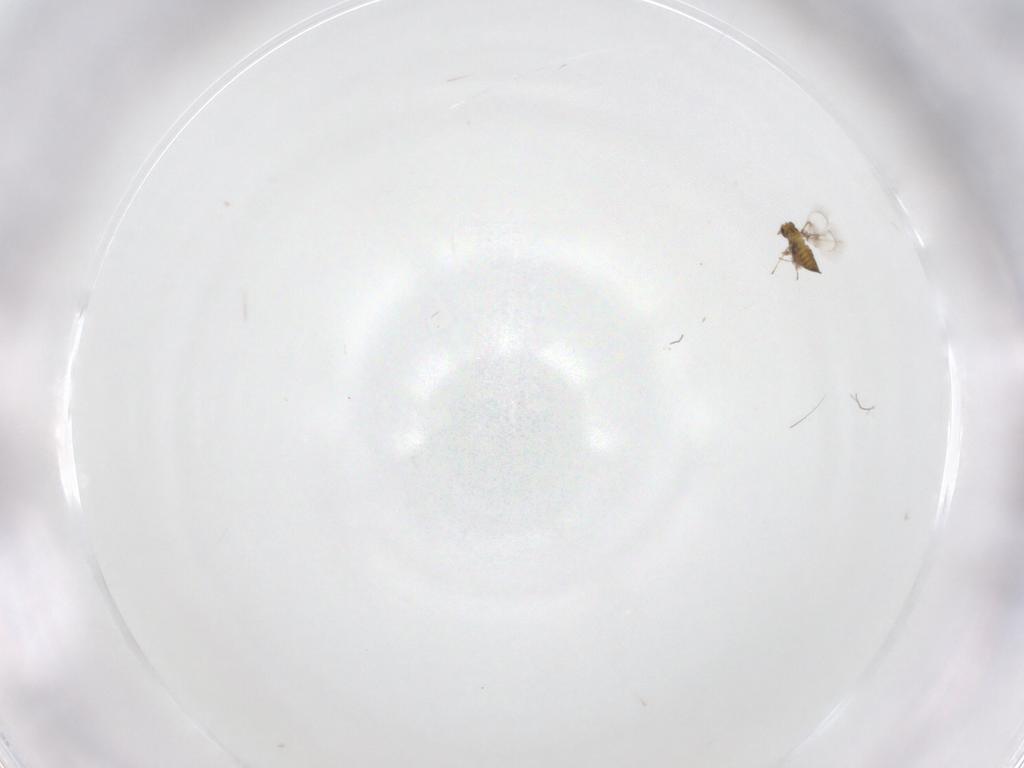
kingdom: Animalia
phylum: Arthropoda
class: Insecta
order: Hymenoptera
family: Trichogrammatidae
